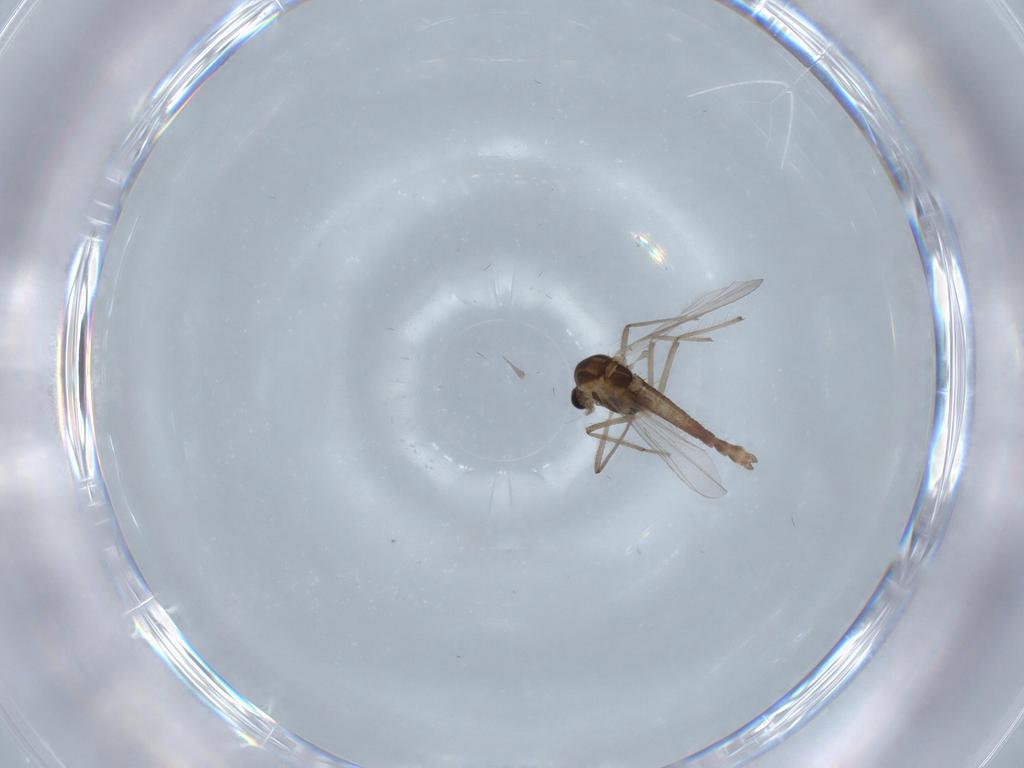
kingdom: Animalia
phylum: Arthropoda
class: Insecta
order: Diptera
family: Chironomidae
